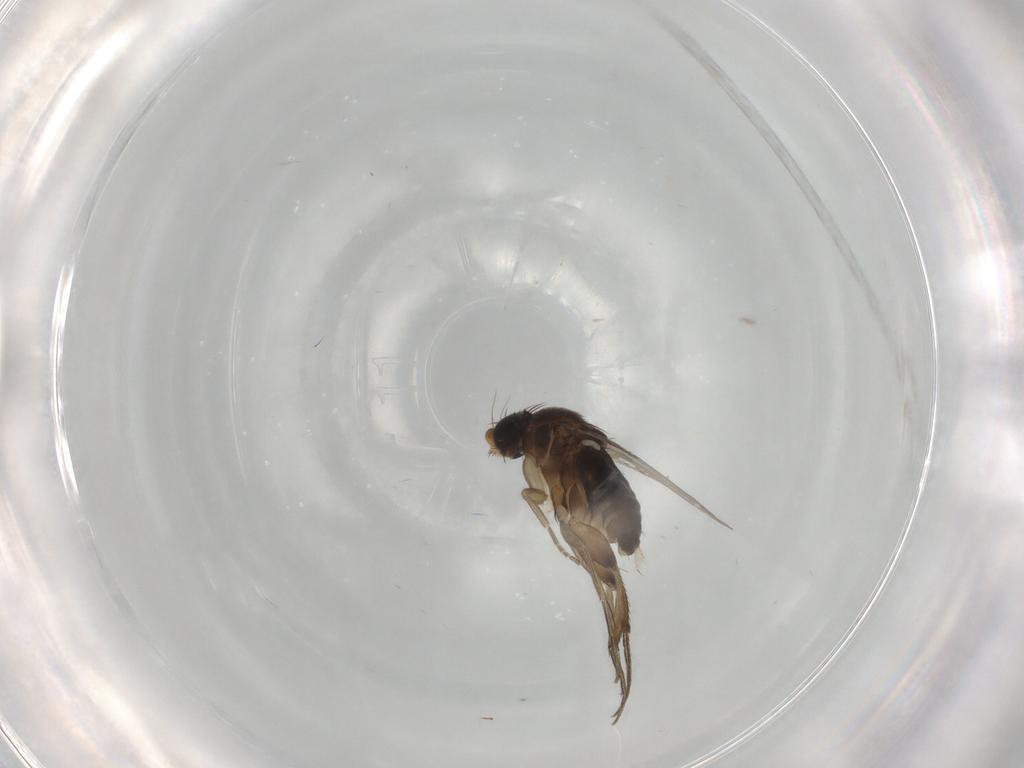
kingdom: Animalia
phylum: Arthropoda
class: Insecta
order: Diptera
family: Phoridae
